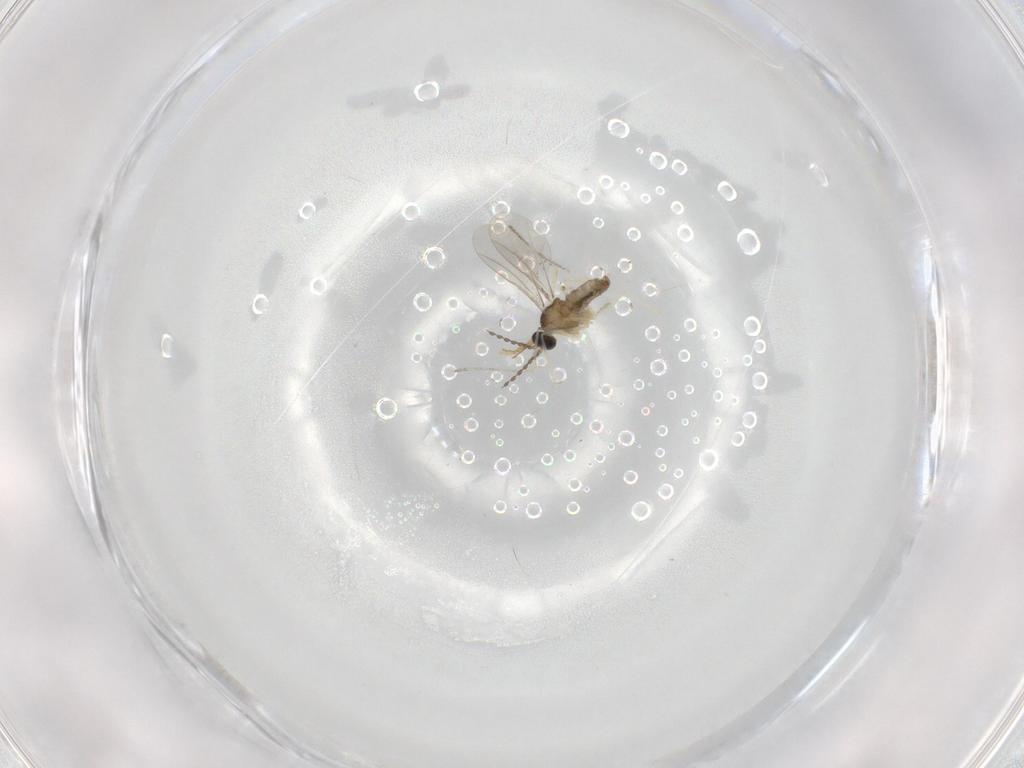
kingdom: Animalia
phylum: Arthropoda
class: Insecta
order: Diptera
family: Cecidomyiidae
